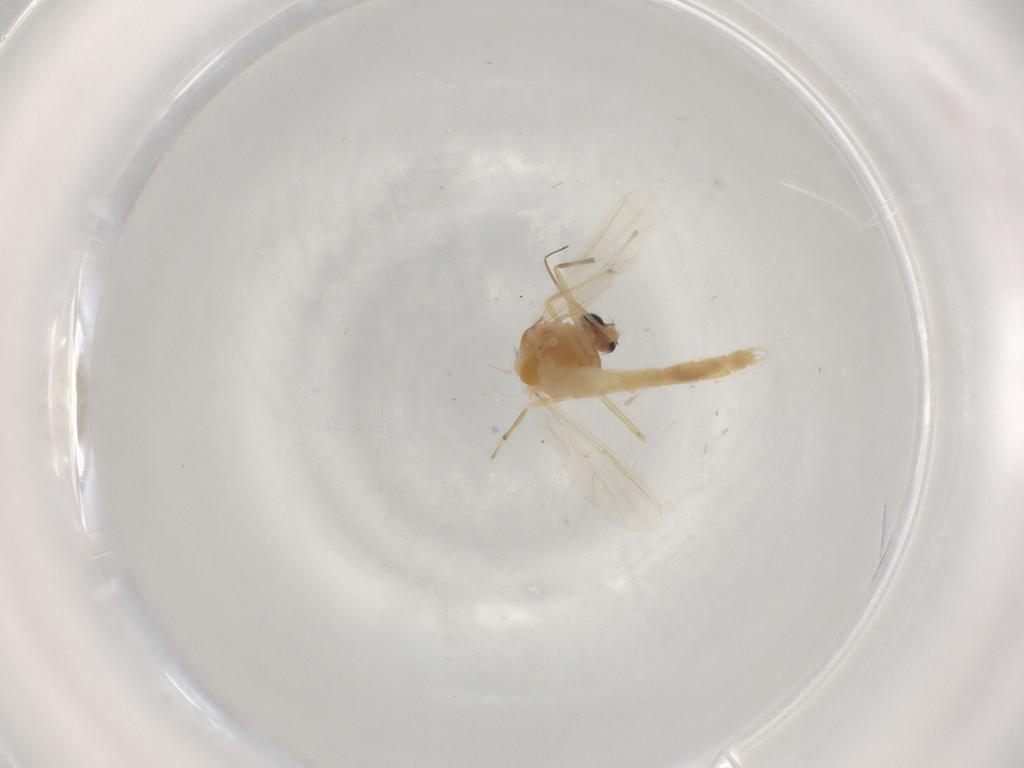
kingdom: Animalia
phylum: Arthropoda
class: Insecta
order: Diptera
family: Chironomidae
